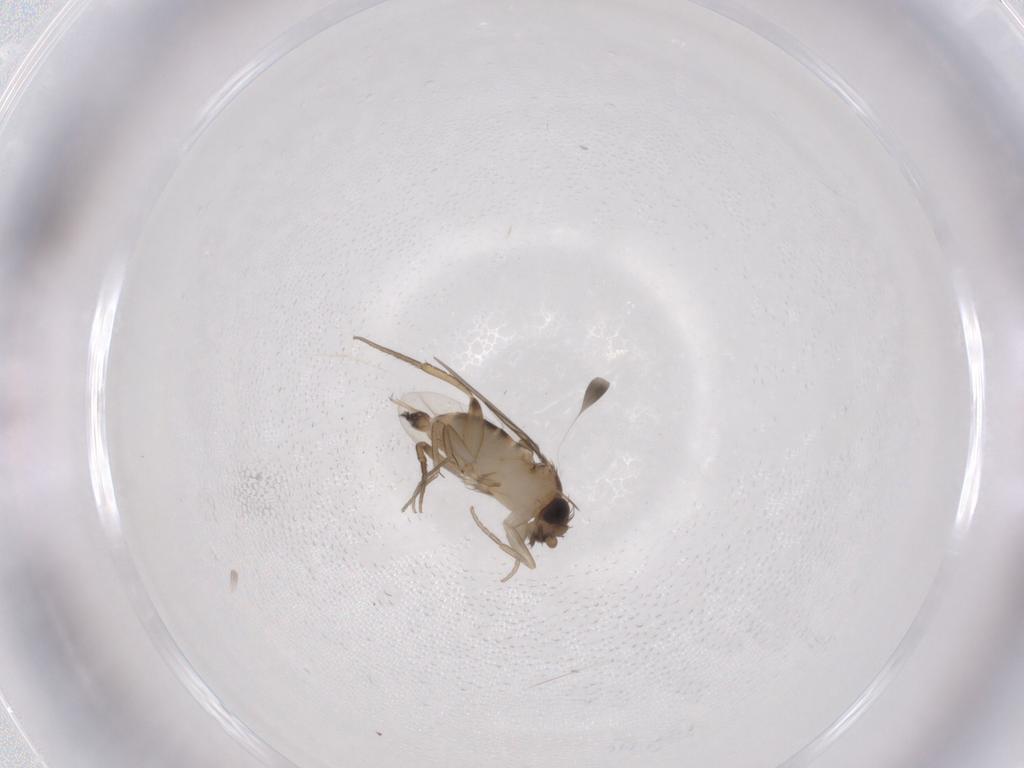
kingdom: Animalia
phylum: Arthropoda
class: Insecta
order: Diptera
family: Phoridae
